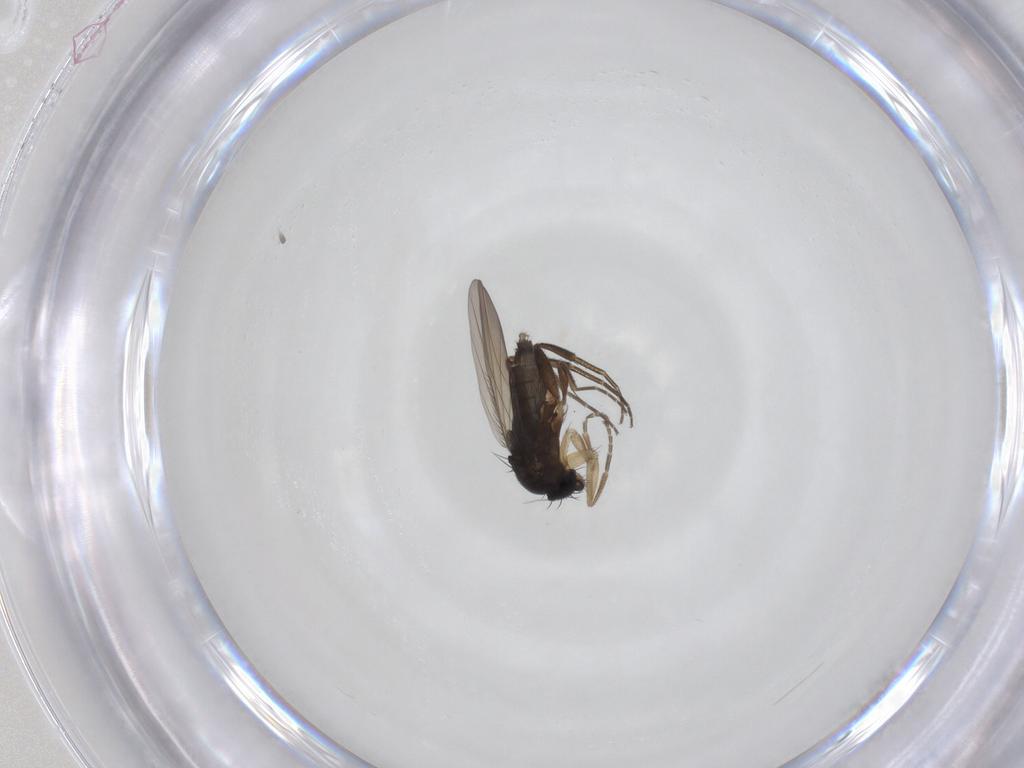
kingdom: Animalia
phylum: Arthropoda
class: Insecta
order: Diptera
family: Phoridae
